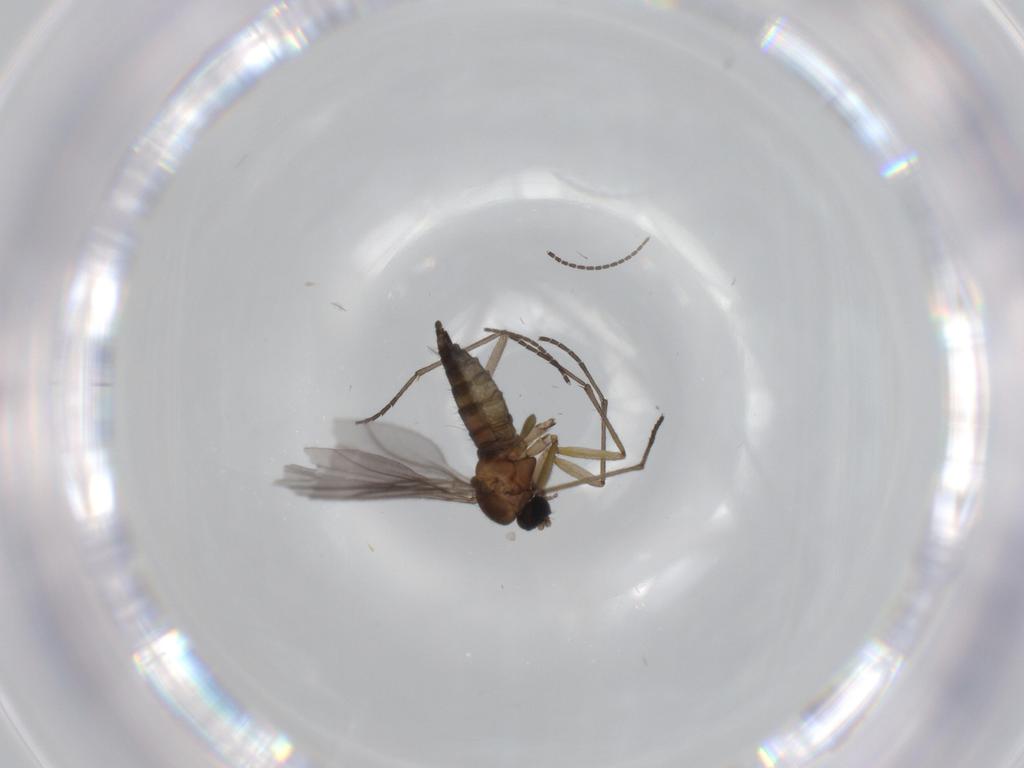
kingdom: Animalia
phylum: Arthropoda
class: Insecta
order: Diptera
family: Sciaridae
